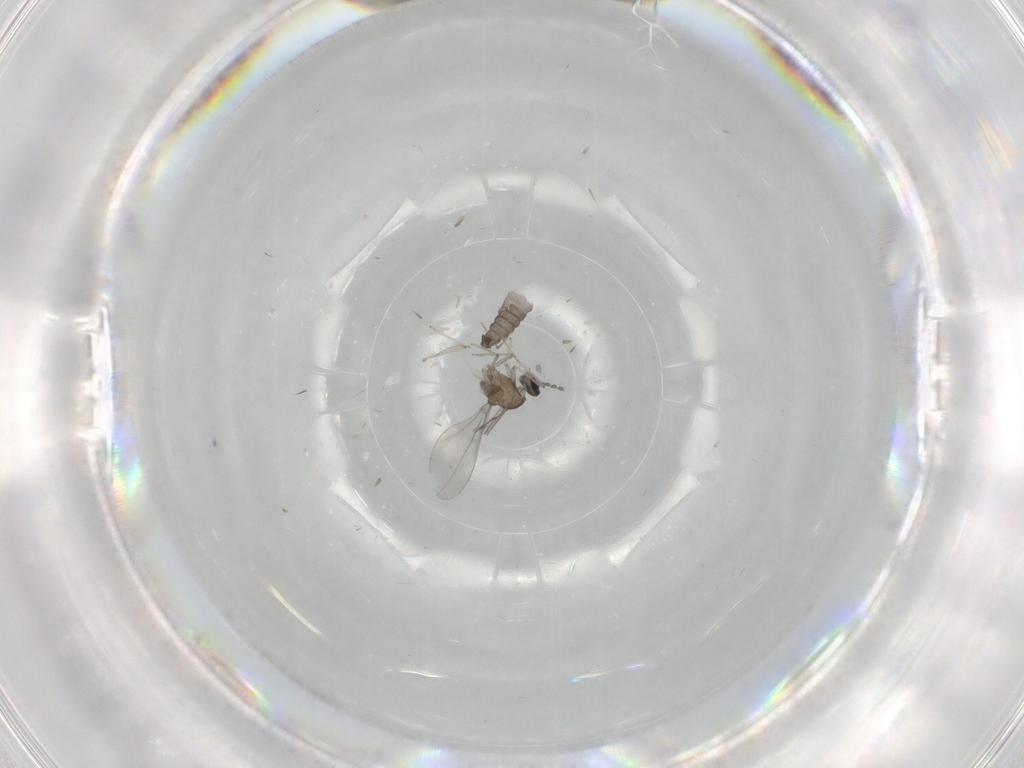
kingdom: Animalia
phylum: Arthropoda
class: Insecta
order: Diptera
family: Cecidomyiidae
